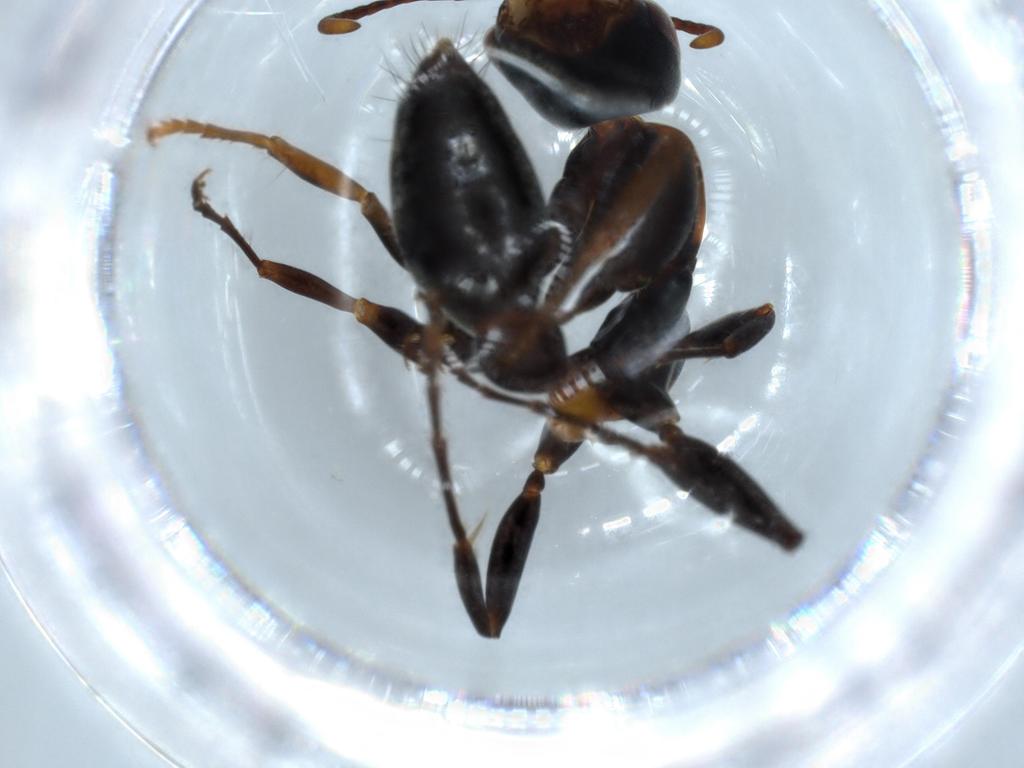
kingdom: Animalia
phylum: Arthropoda
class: Insecta
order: Hymenoptera
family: Formicidae
